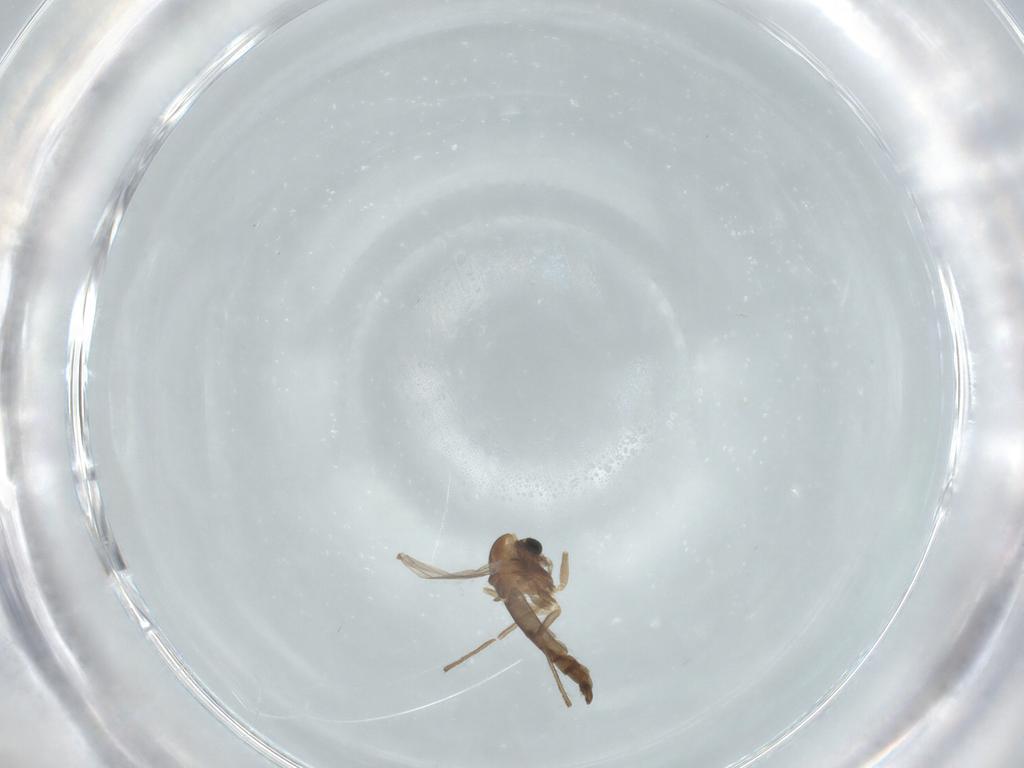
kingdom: Animalia
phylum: Arthropoda
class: Insecta
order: Diptera
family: Chironomidae
